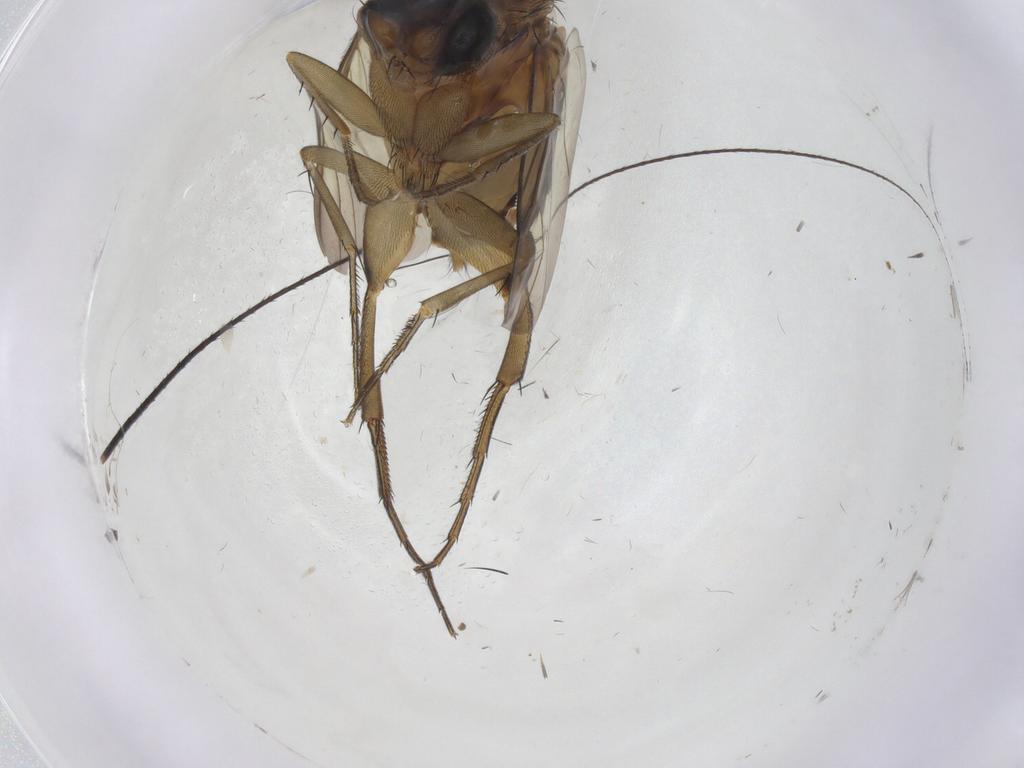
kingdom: Animalia
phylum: Arthropoda
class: Insecta
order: Diptera
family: Phoridae
